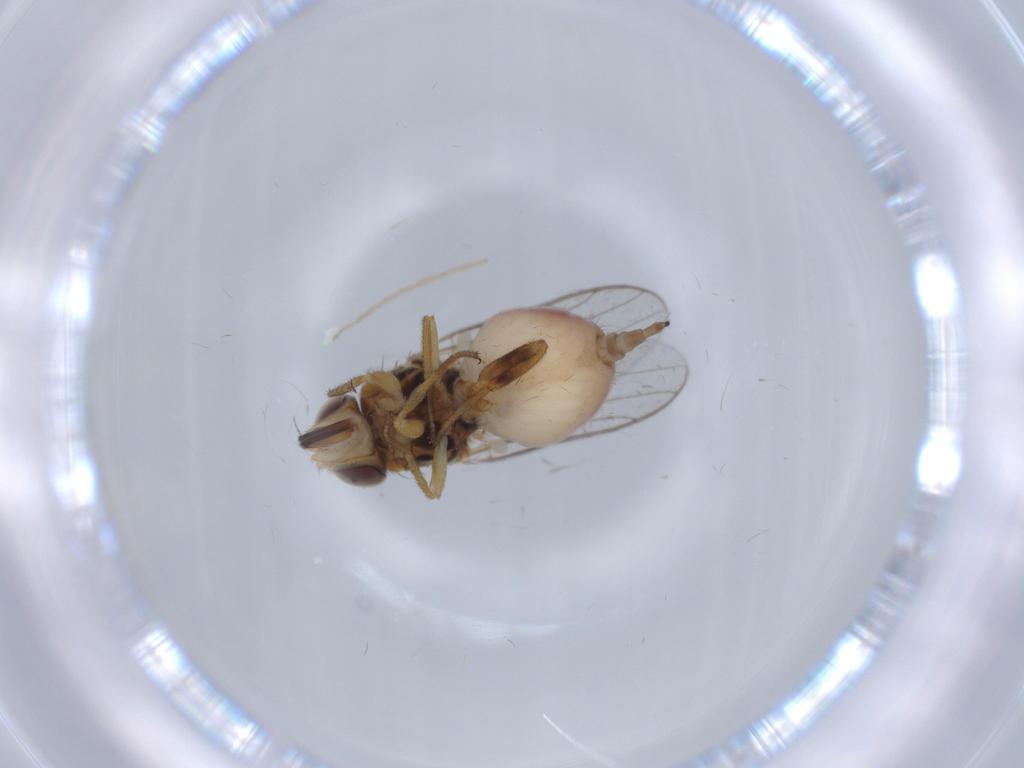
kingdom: Animalia
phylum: Arthropoda
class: Insecta
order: Diptera
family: Chloropidae
